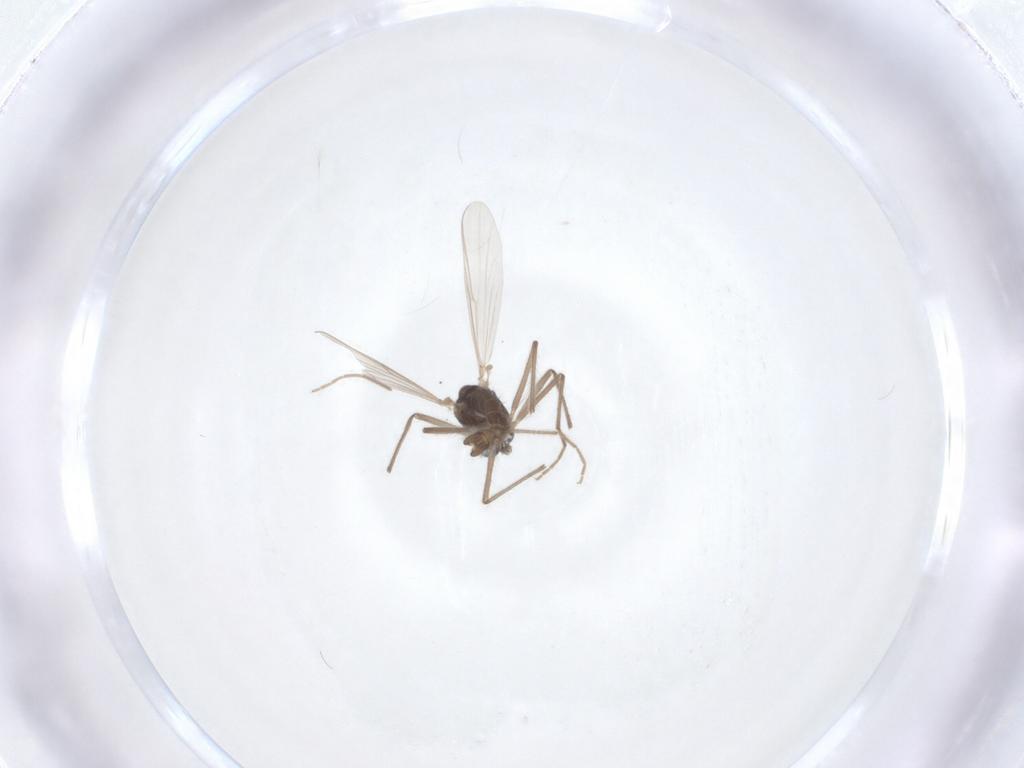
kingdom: Animalia
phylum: Arthropoda
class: Insecta
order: Diptera
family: Chironomidae
